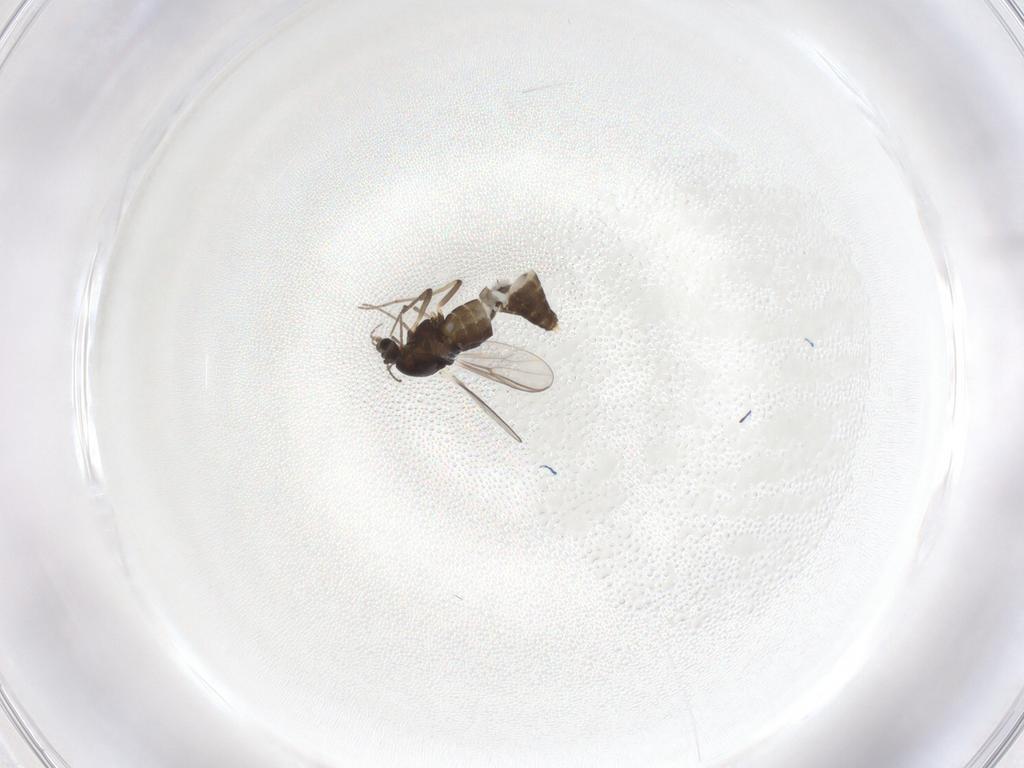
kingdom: Animalia
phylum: Arthropoda
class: Insecta
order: Diptera
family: Chironomidae
